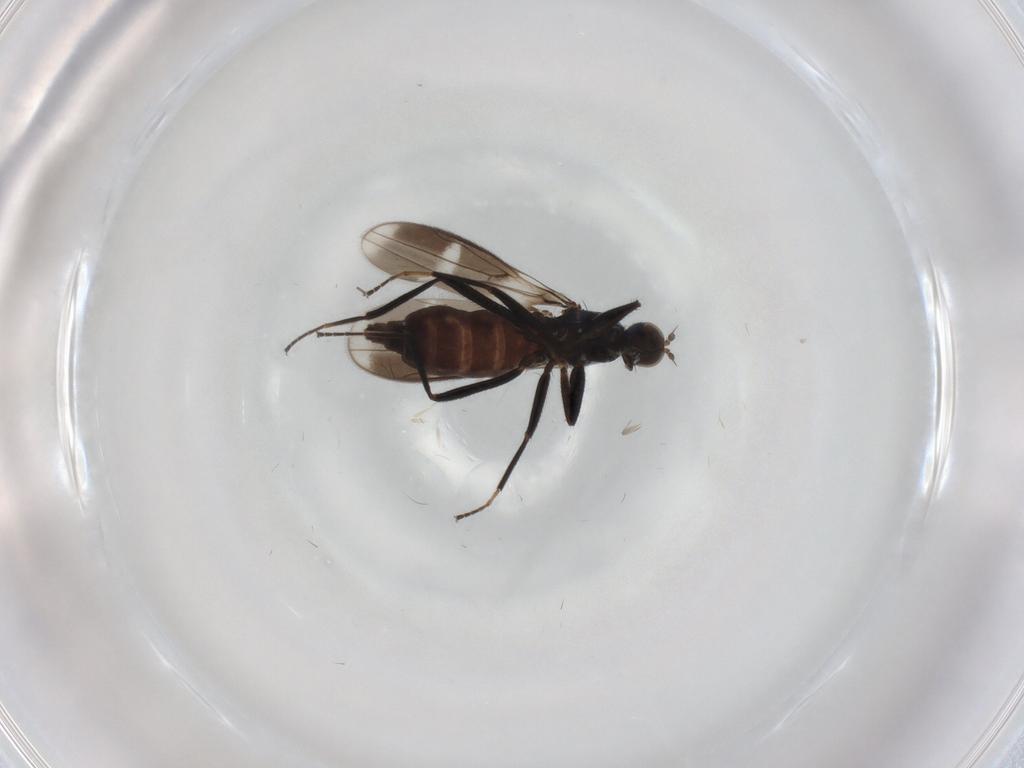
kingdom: Animalia
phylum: Arthropoda
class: Insecta
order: Diptera
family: Hybotidae
